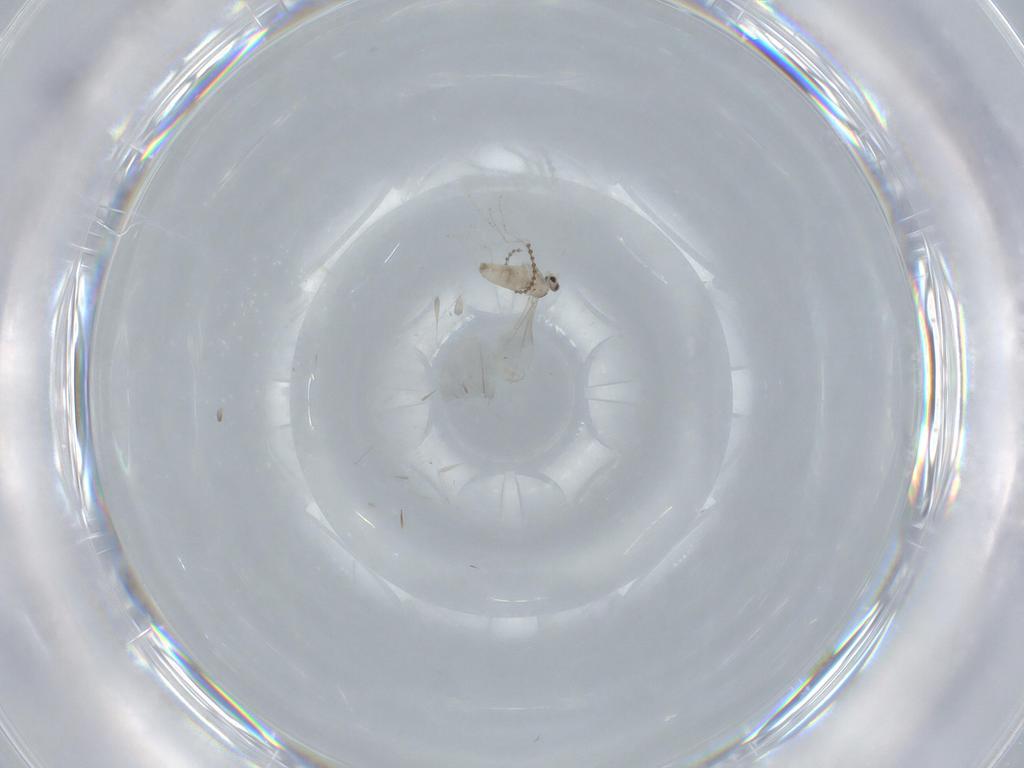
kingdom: Animalia
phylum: Arthropoda
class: Insecta
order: Diptera
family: Cecidomyiidae
